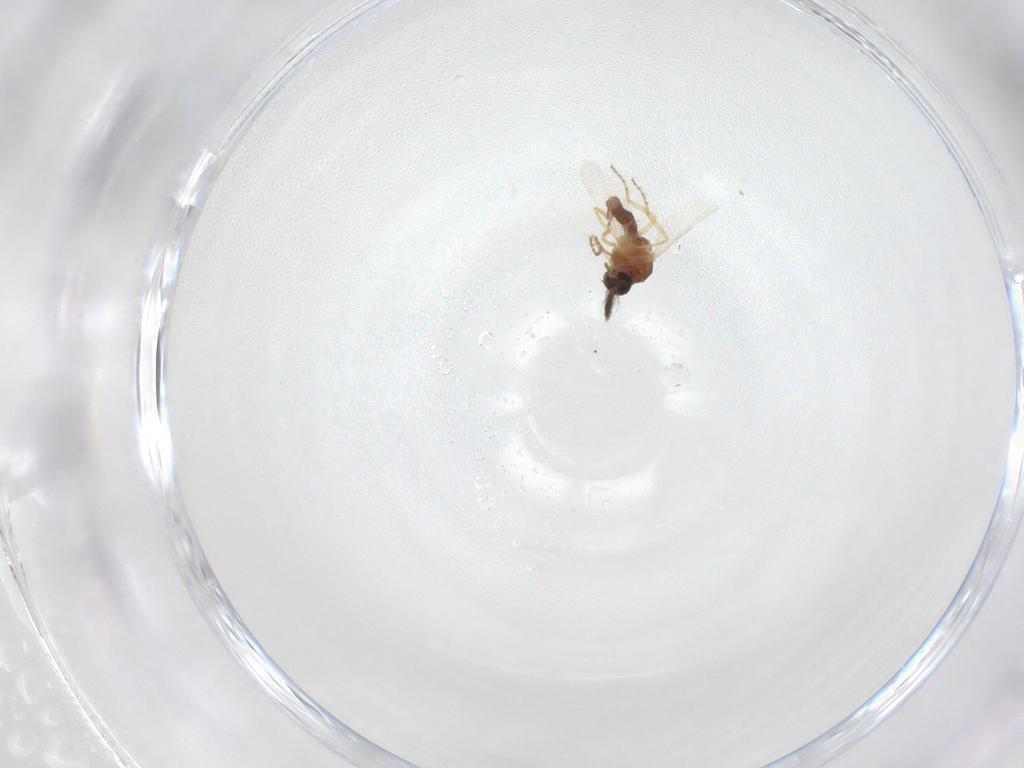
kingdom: Animalia
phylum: Arthropoda
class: Insecta
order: Diptera
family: Ceratopogonidae
